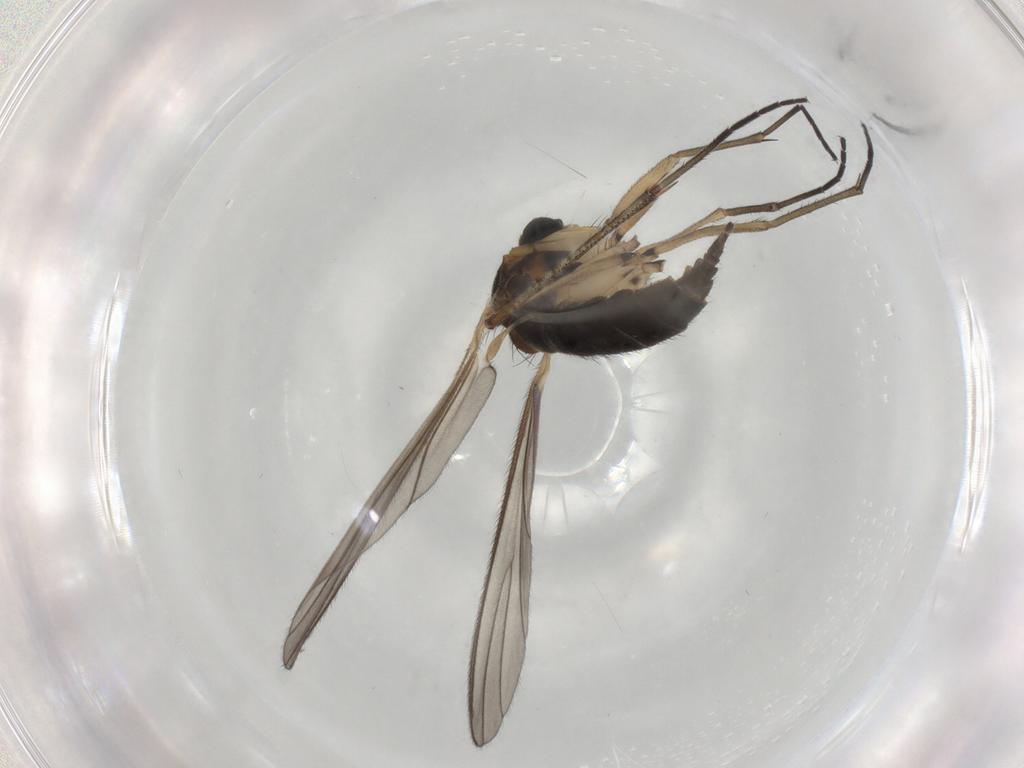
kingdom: Animalia
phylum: Arthropoda
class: Insecta
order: Diptera
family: Sciaridae
